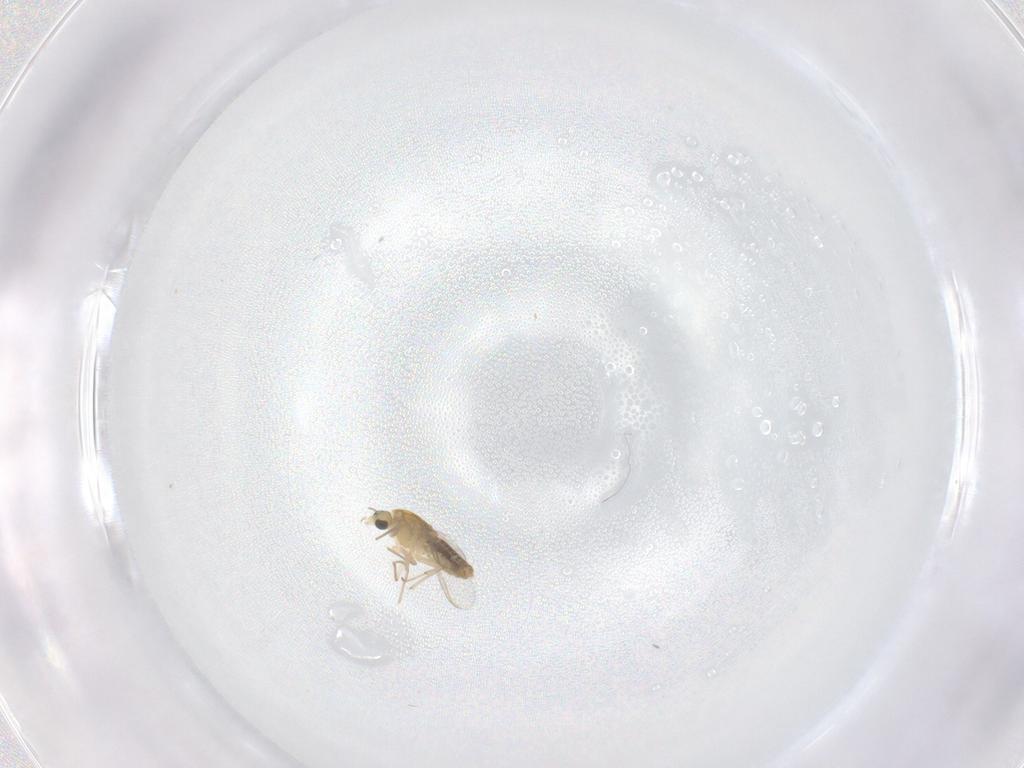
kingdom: Animalia
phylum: Arthropoda
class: Insecta
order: Diptera
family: Chironomidae
